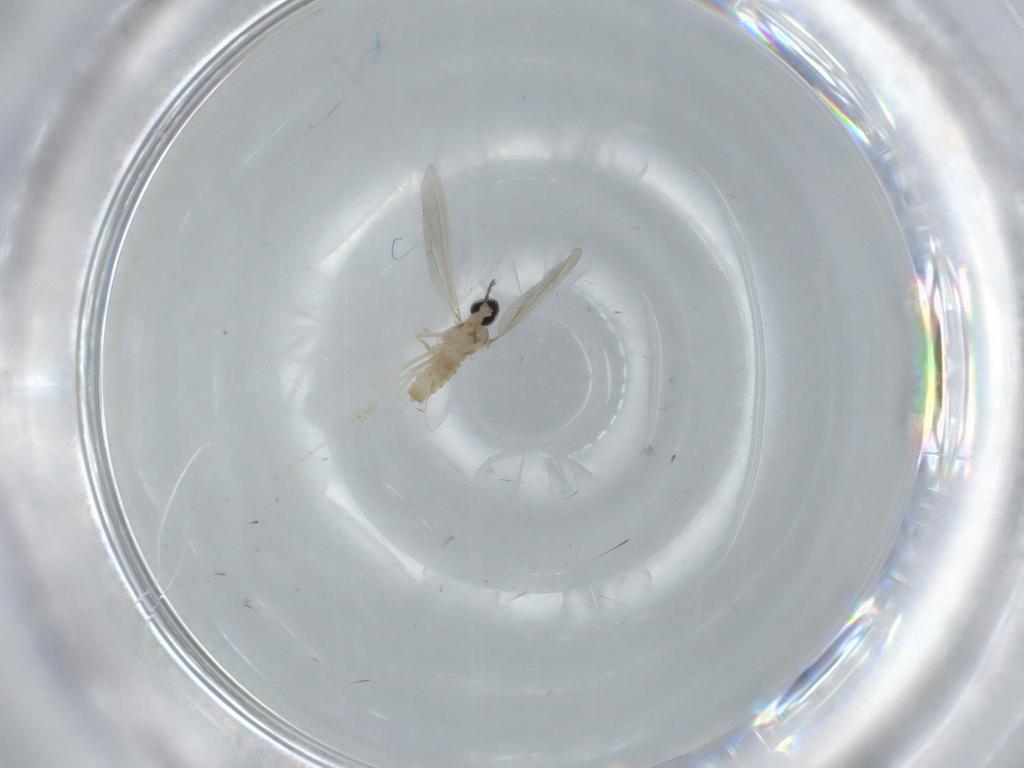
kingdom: Animalia
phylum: Arthropoda
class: Insecta
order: Diptera
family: Cecidomyiidae
